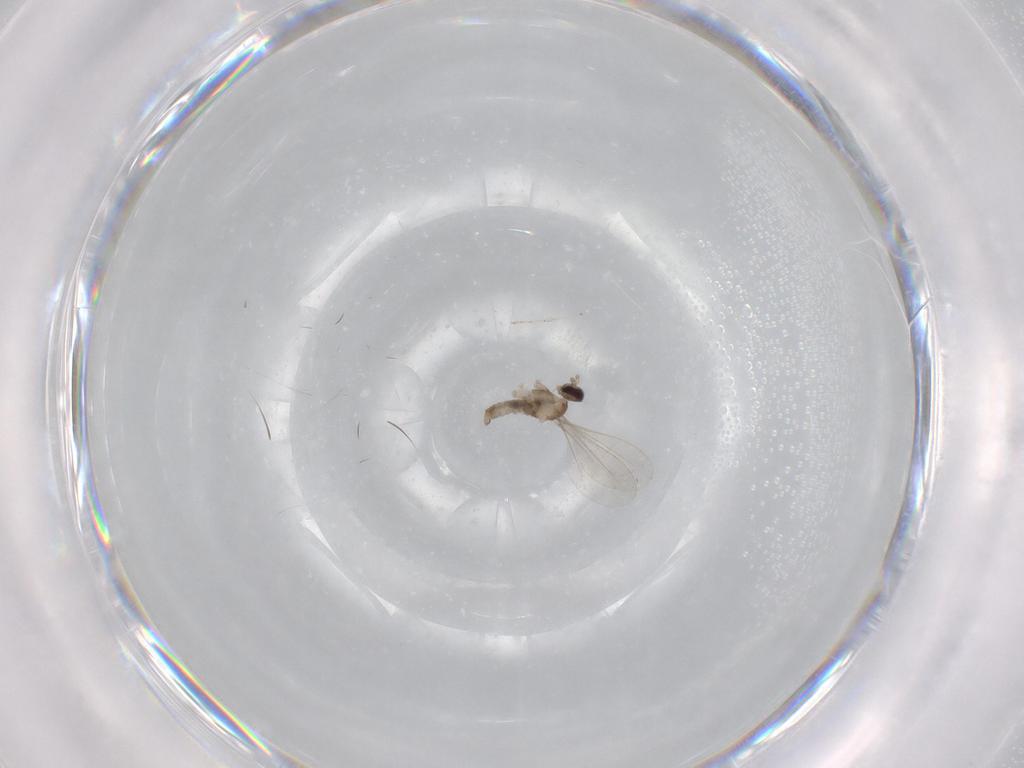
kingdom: Animalia
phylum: Arthropoda
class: Insecta
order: Diptera
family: Cecidomyiidae
